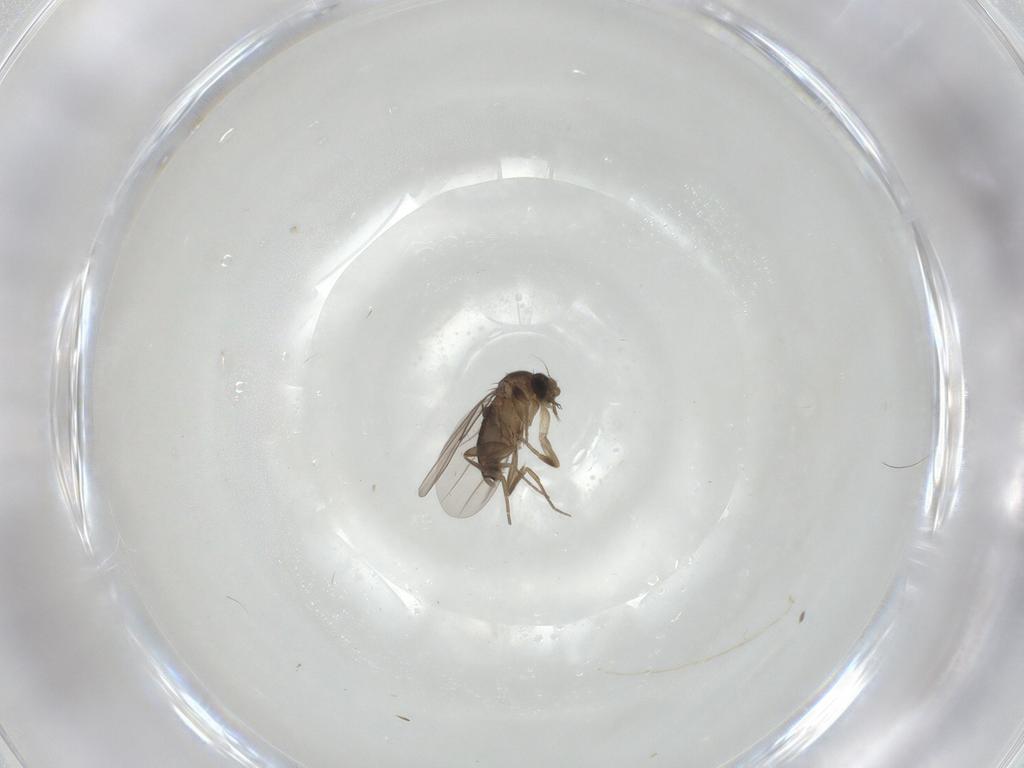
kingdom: Animalia
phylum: Arthropoda
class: Insecta
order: Diptera
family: Phoridae
